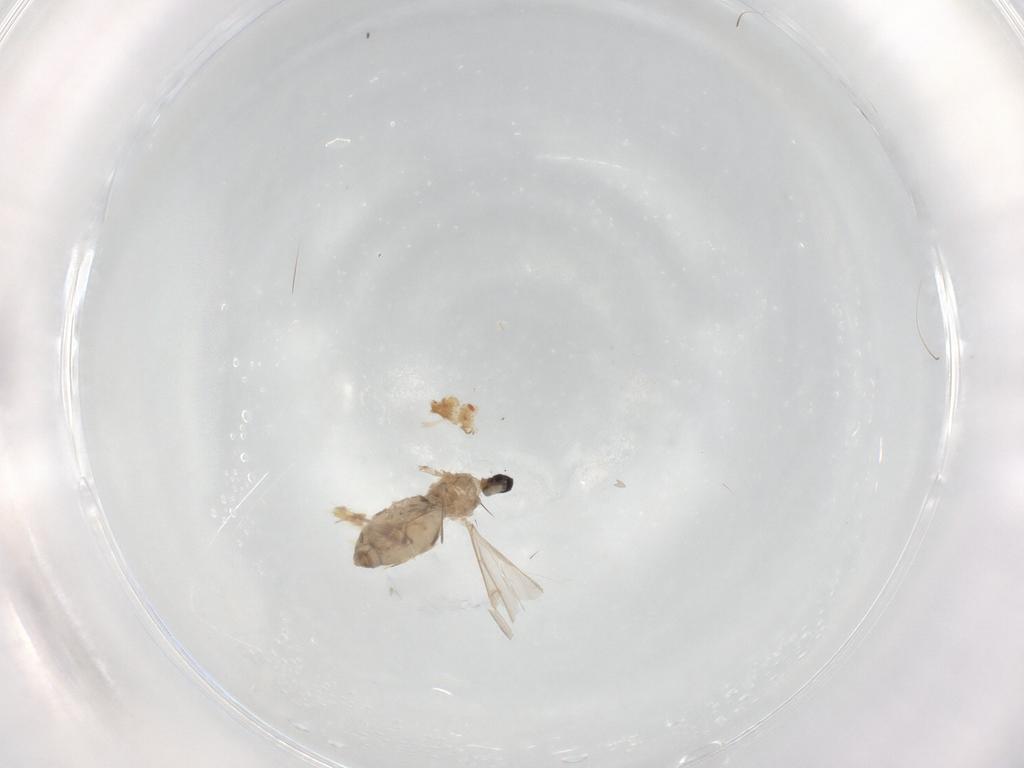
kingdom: Animalia
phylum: Arthropoda
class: Insecta
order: Diptera
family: Cecidomyiidae
